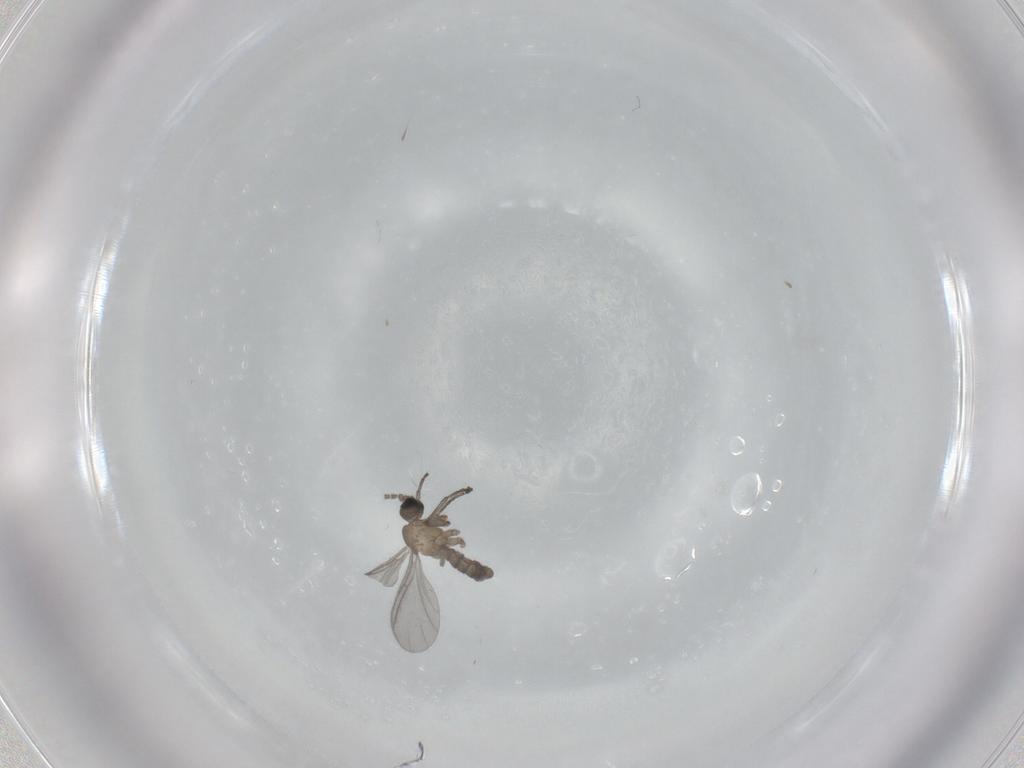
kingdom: Animalia
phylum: Arthropoda
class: Insecta
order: Diptera
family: Sciaridae
